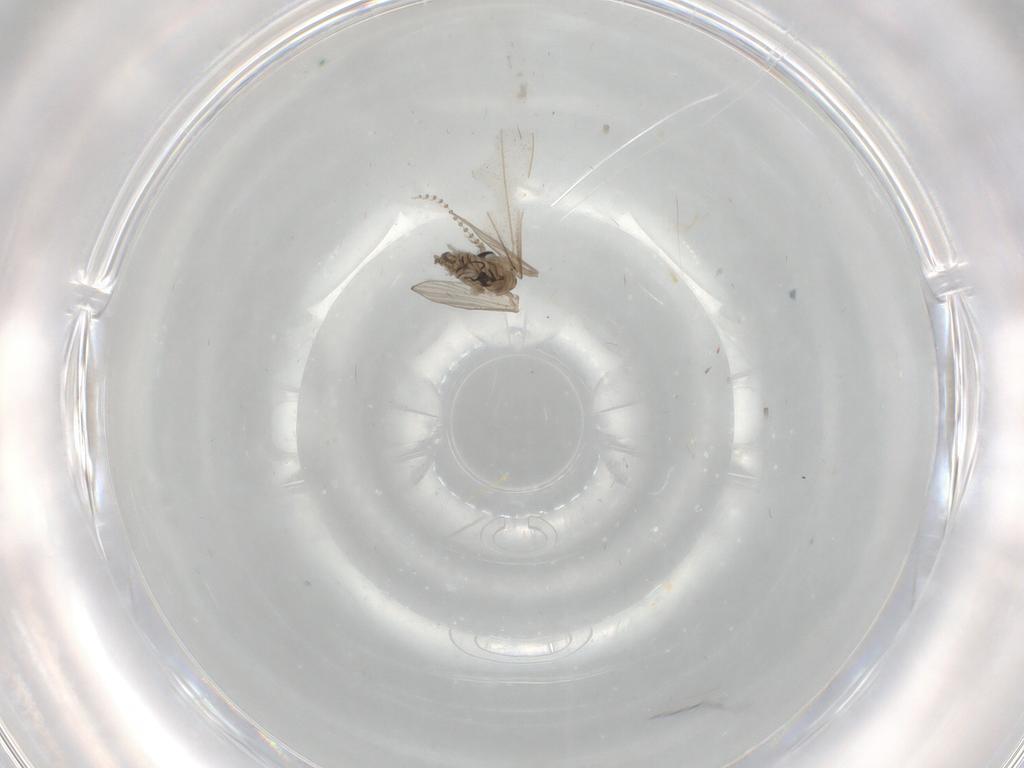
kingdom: Animalia
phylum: Arthropoda
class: Insecta
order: Diptera
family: Psychodidae
